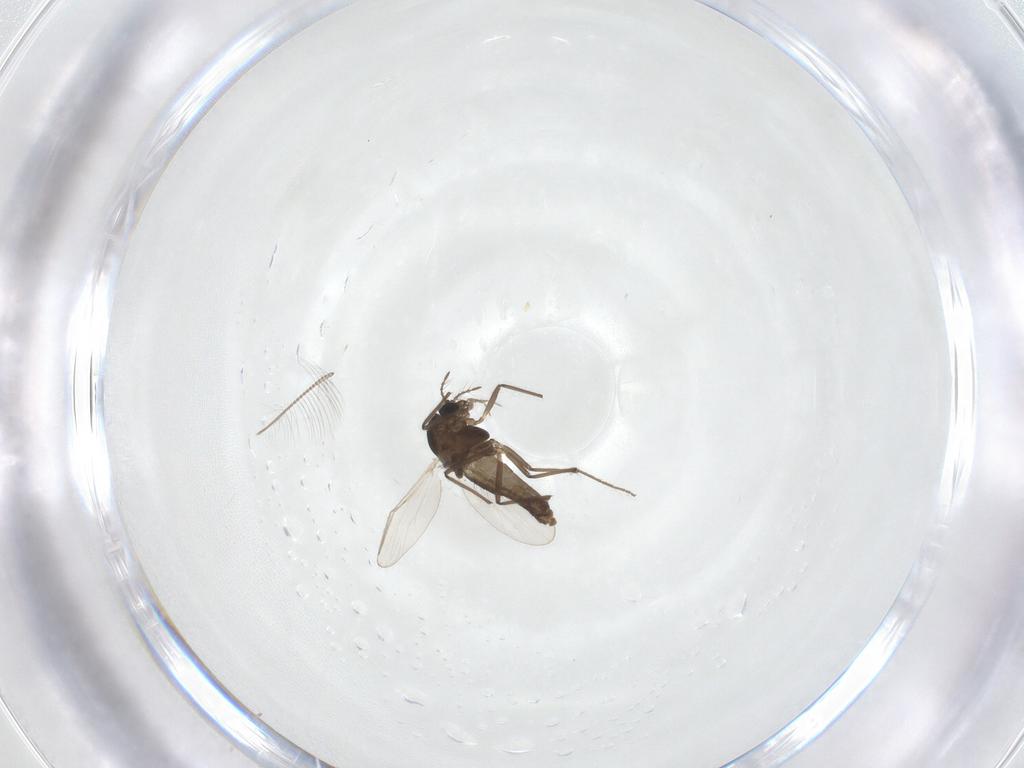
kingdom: Animalia
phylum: Arthropoda
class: Insecta
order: Diptera
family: Chironomidae
